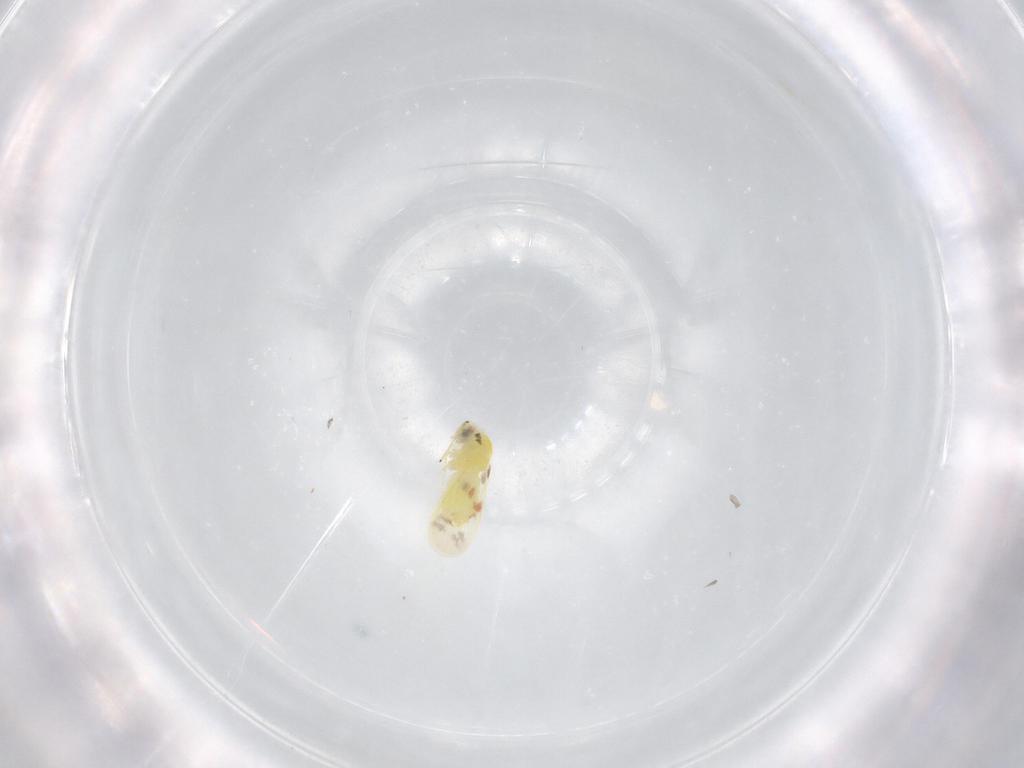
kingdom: Animalia
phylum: Arthropoda
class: Insecta
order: Hemiptera
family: Aleyrodidae
